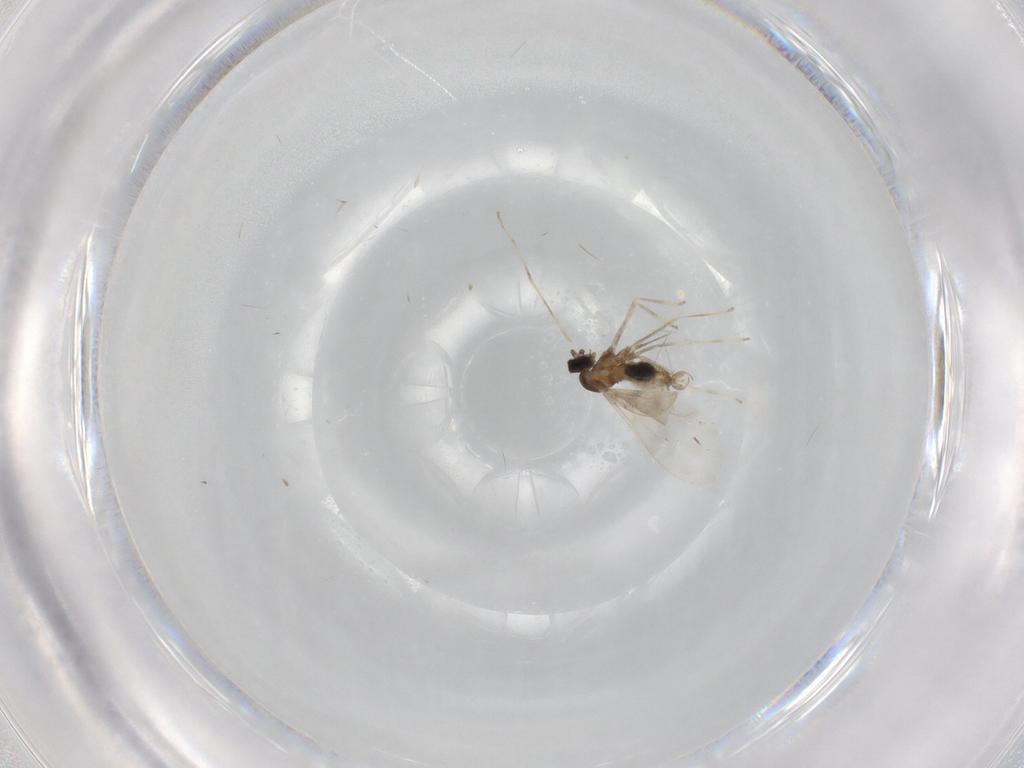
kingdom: Animalia
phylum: Arthropoda
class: Insecta
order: Diptera
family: Cecidomyiidae
